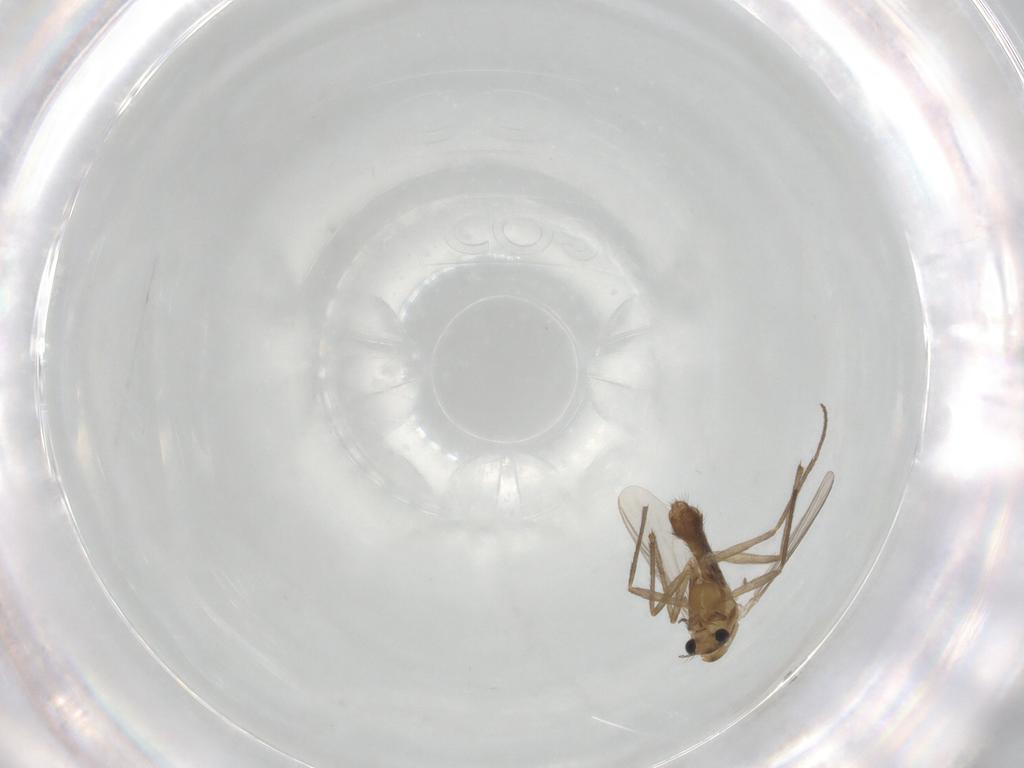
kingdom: Animalia
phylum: Arthropoda
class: Insecta
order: Diptera
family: Chironomidae
